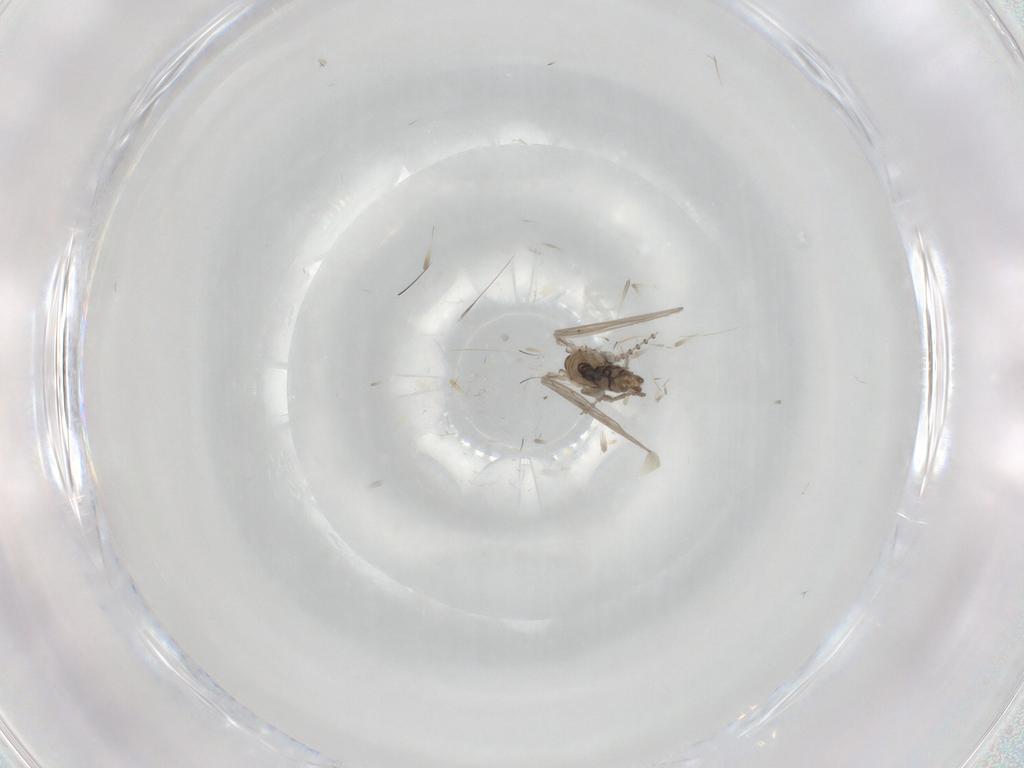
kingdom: Animalia
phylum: Arthropoda
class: Insecta
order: Diptera
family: Psychodidae
